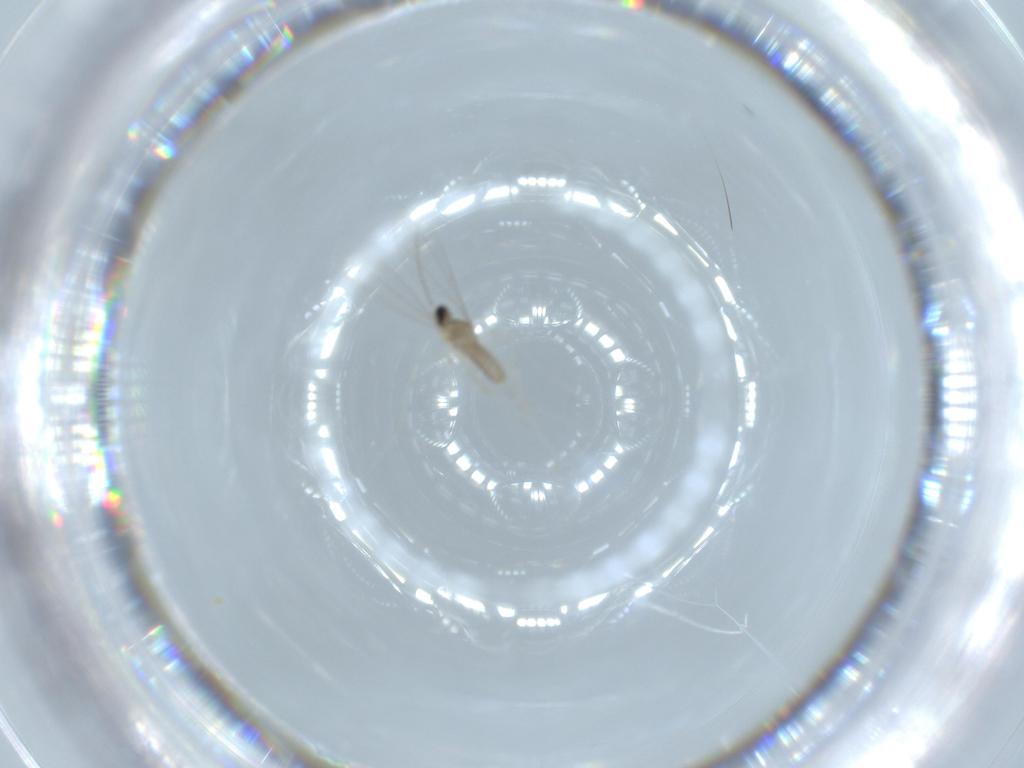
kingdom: Animalia
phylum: Arthropoda
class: Insecta
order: Diptera
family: Cecidomyiidae
